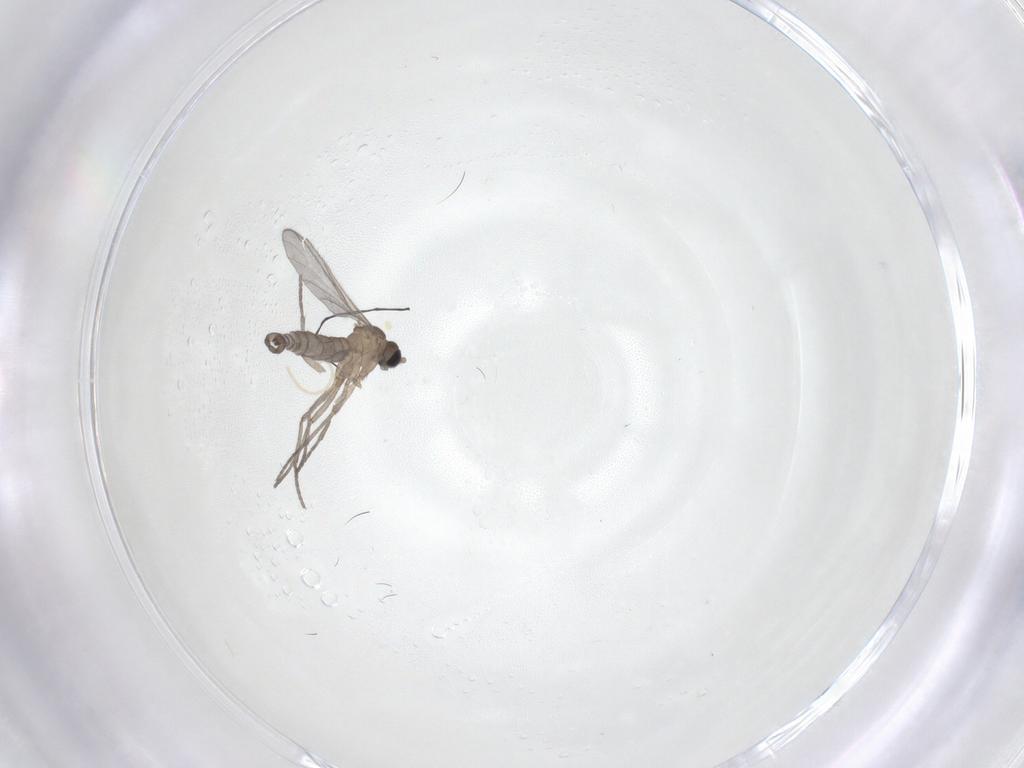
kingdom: Animalia
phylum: Arthropoda
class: Insecta
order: Diptera
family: Sciaridae
